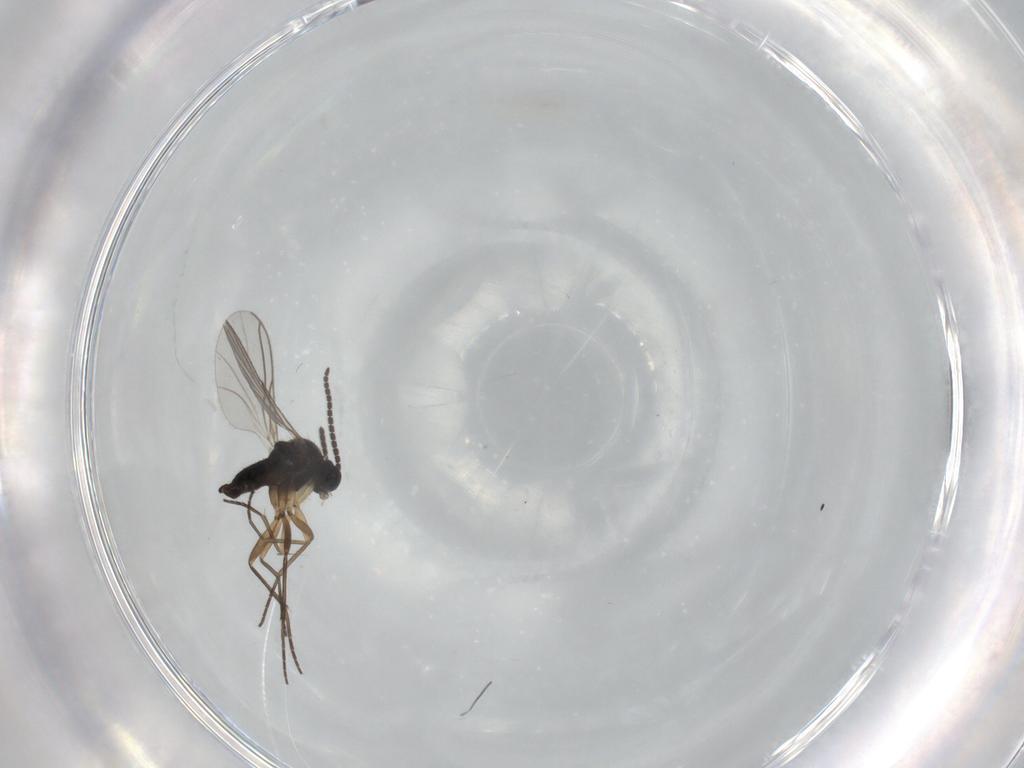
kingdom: Animalia
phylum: Arthropoda
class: Insecta
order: Diptera
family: Sciaridae
